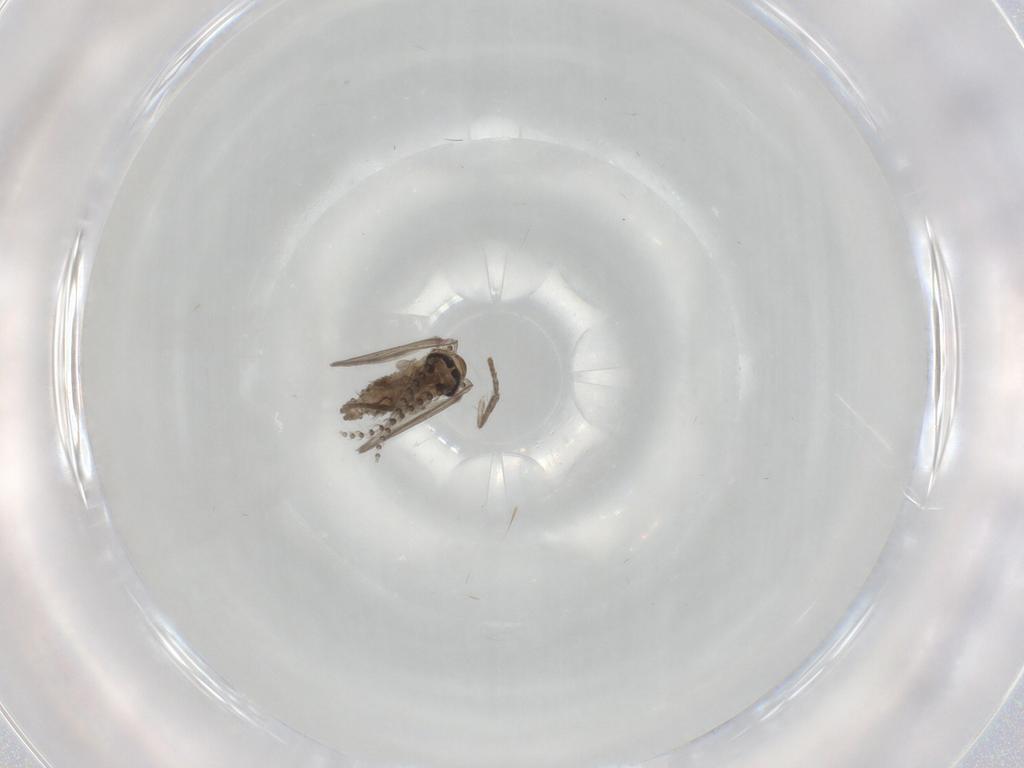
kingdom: Animalia
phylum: Arthropoda
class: Insecta
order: Diptera
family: Psychodidae
